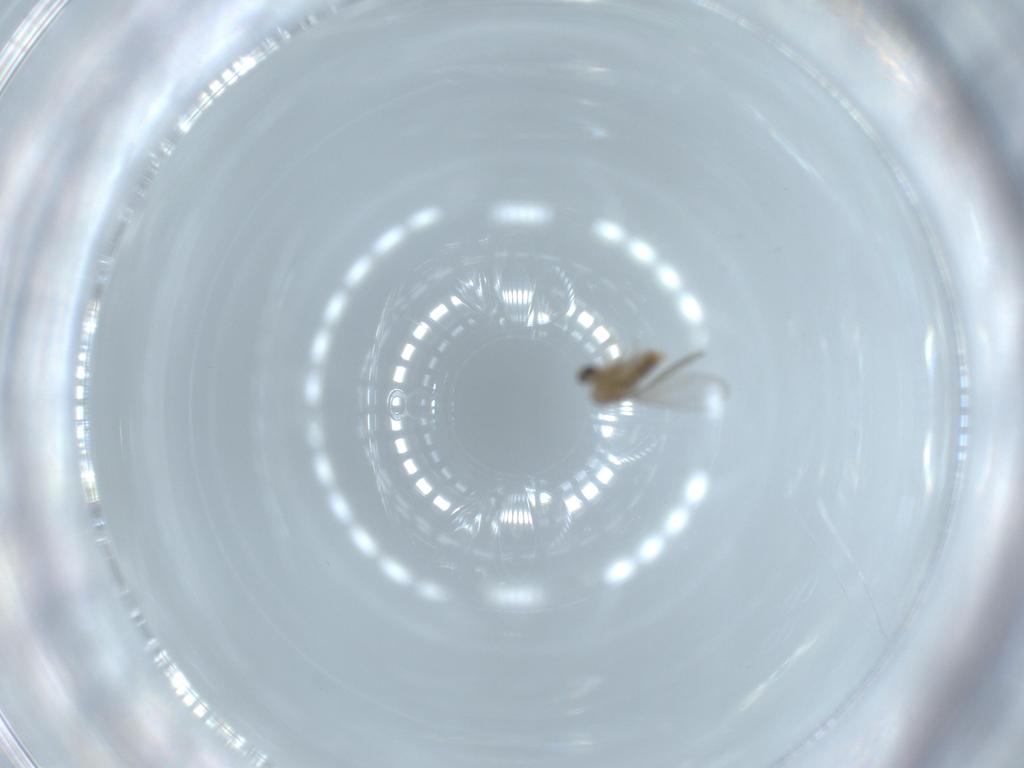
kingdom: Animalia
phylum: Arthropoda
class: Insecta
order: Diptera
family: Cecidomyiidae
